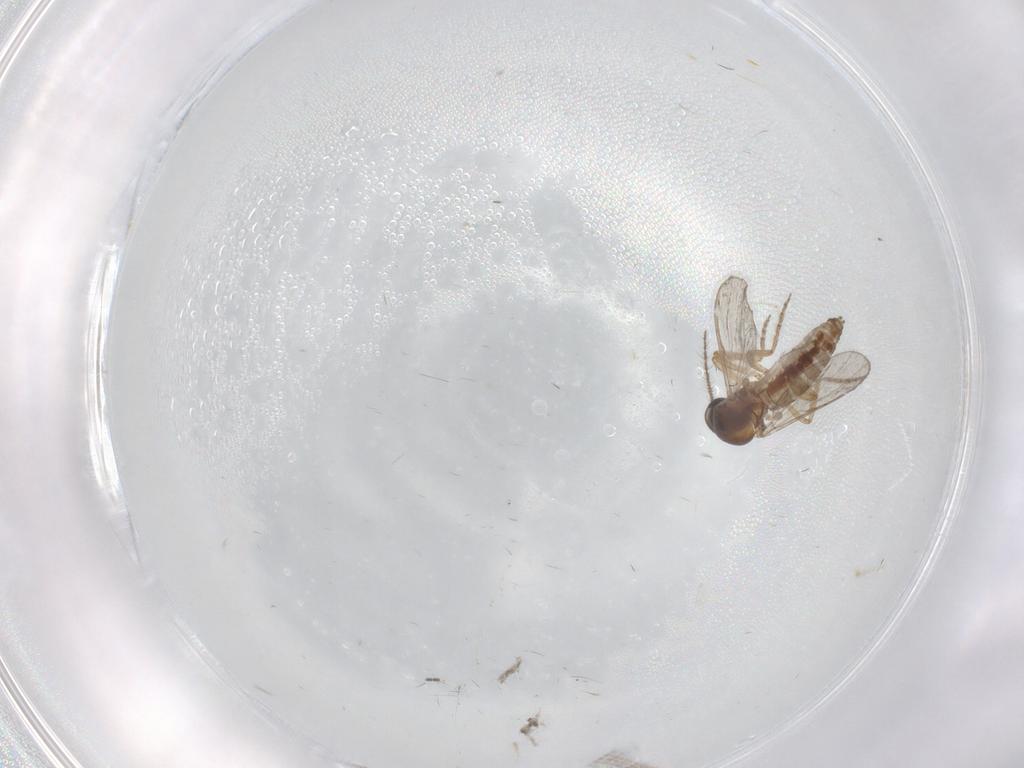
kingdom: Animalia
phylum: Arthropoda
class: Insecta
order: Diptera
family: Ceratopogonidae
